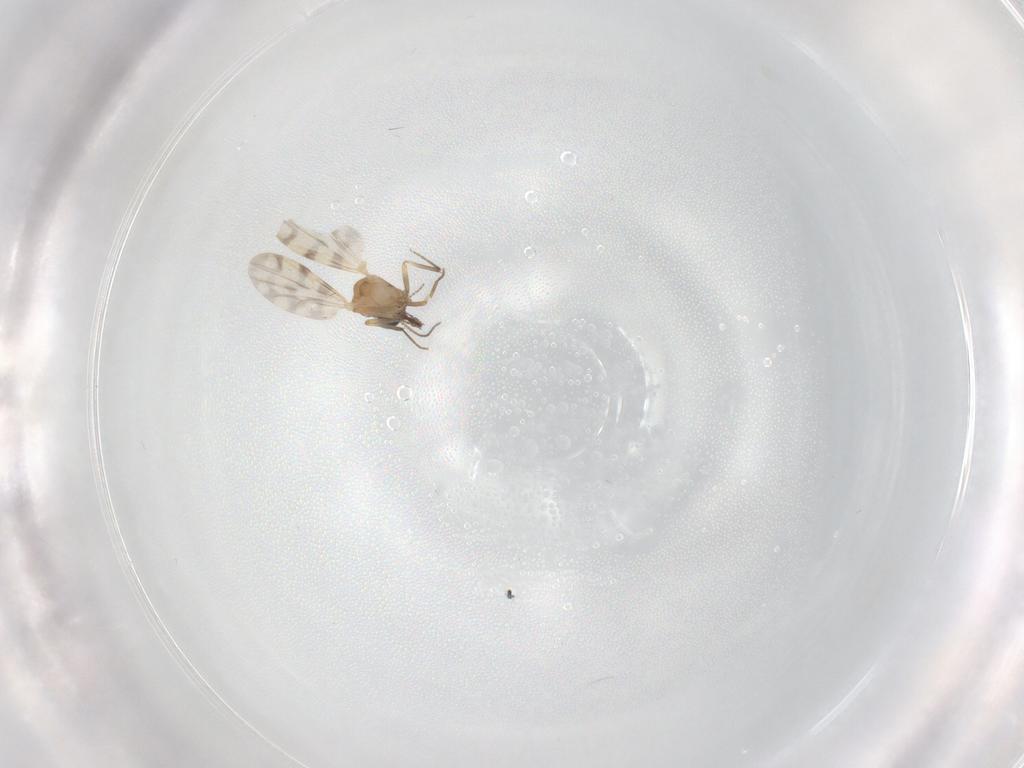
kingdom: Animalia
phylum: Arthropoda
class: Insecta
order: Diptera
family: Ceratopogonidae
